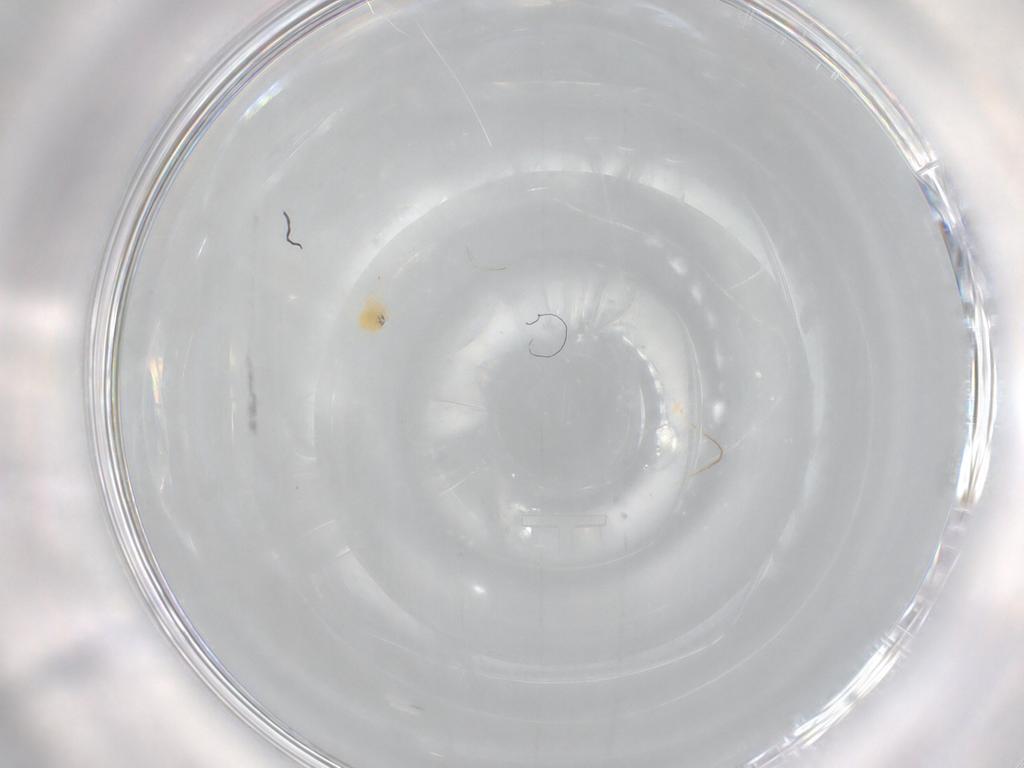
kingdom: Animalia
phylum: Arthropoda
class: Insecta
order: Hemiptera
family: Aleyrodidae
